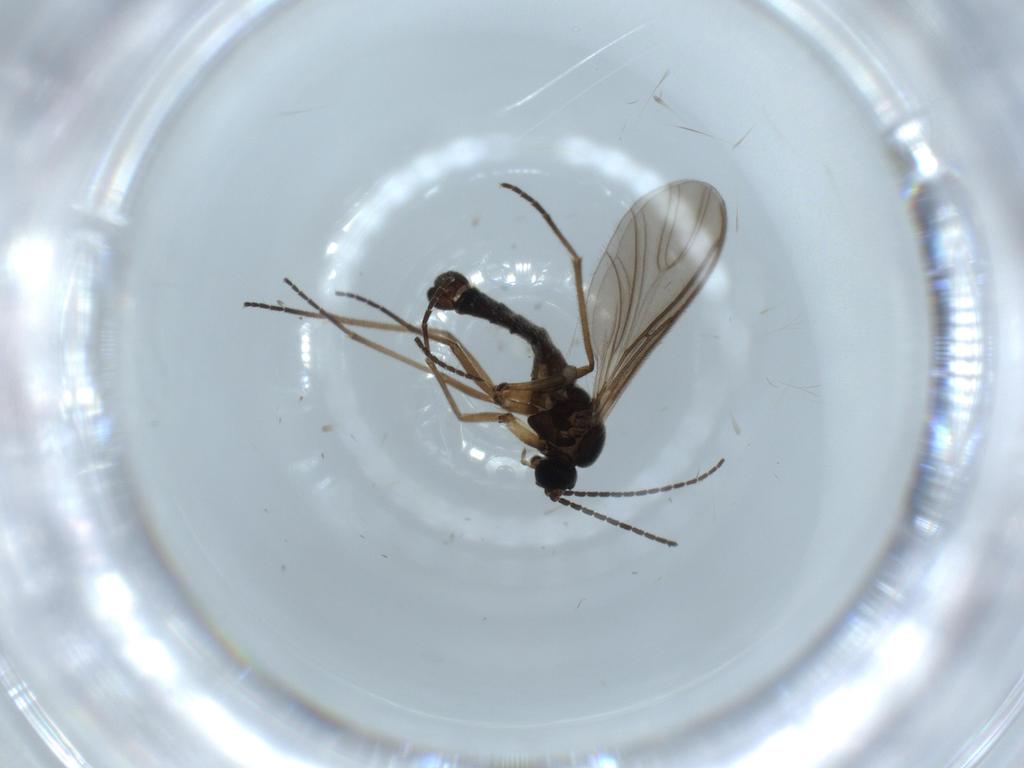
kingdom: Animalia
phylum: Arthropoda
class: Insecta
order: Diptera
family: Sciaridae
